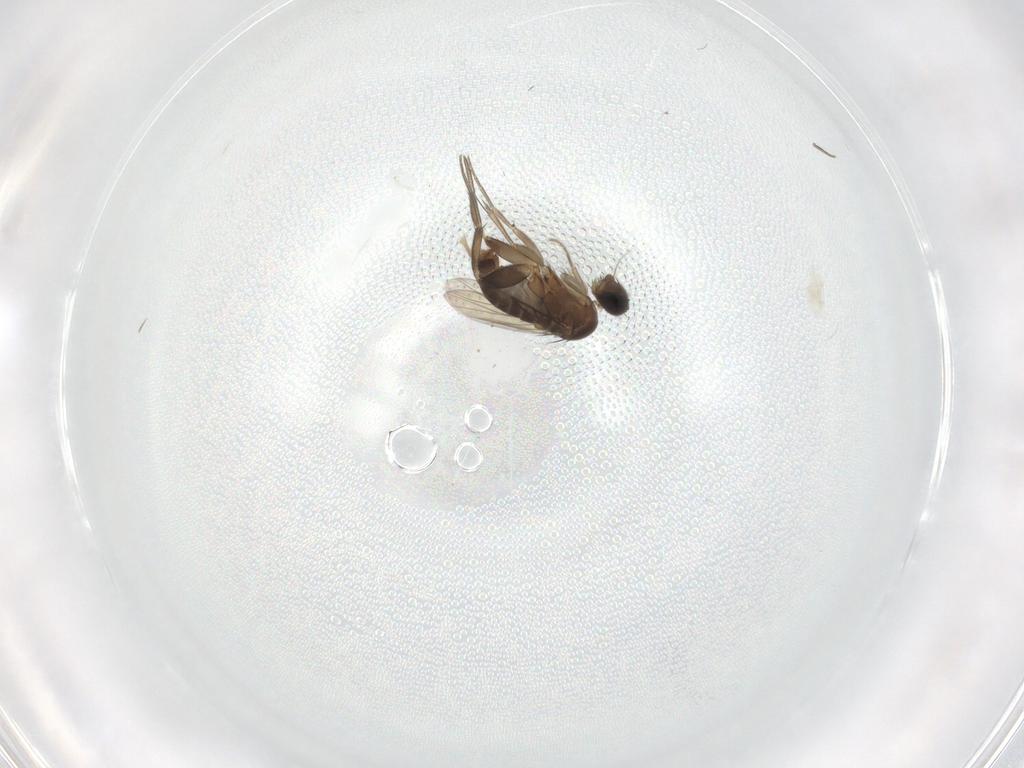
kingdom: Animalia
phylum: Arthropoda
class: Insecta
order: Diptera
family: Phoridae
